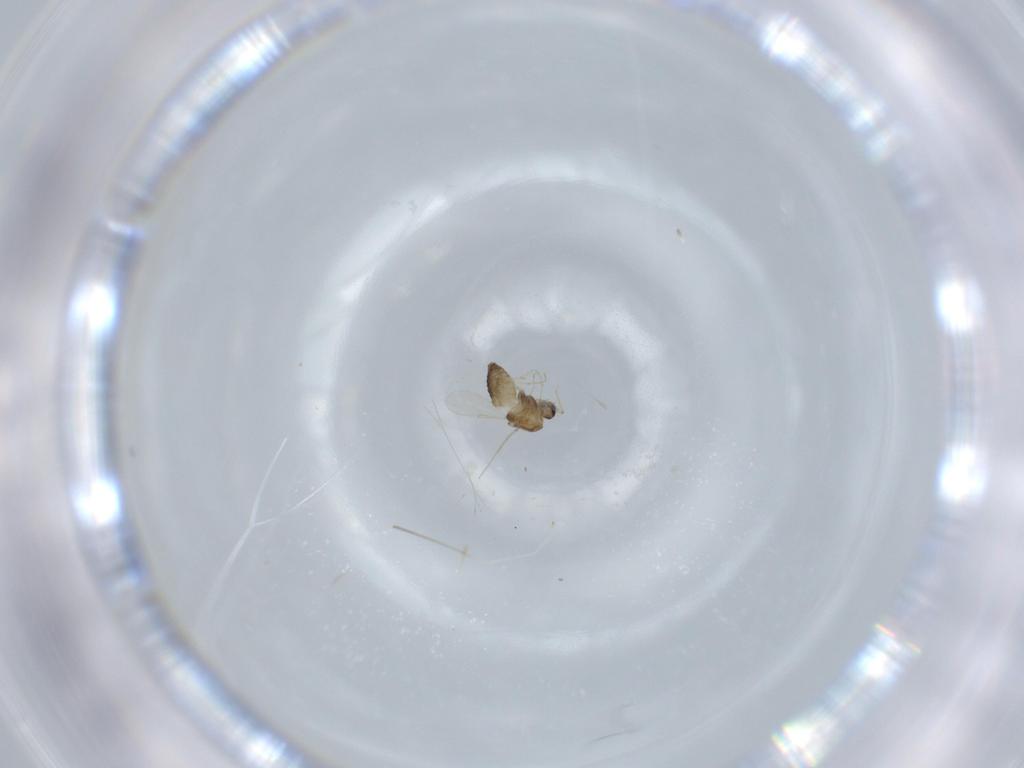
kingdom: Animalia
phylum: Arthropoda
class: Insecta
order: Diptera
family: Chironomidae
